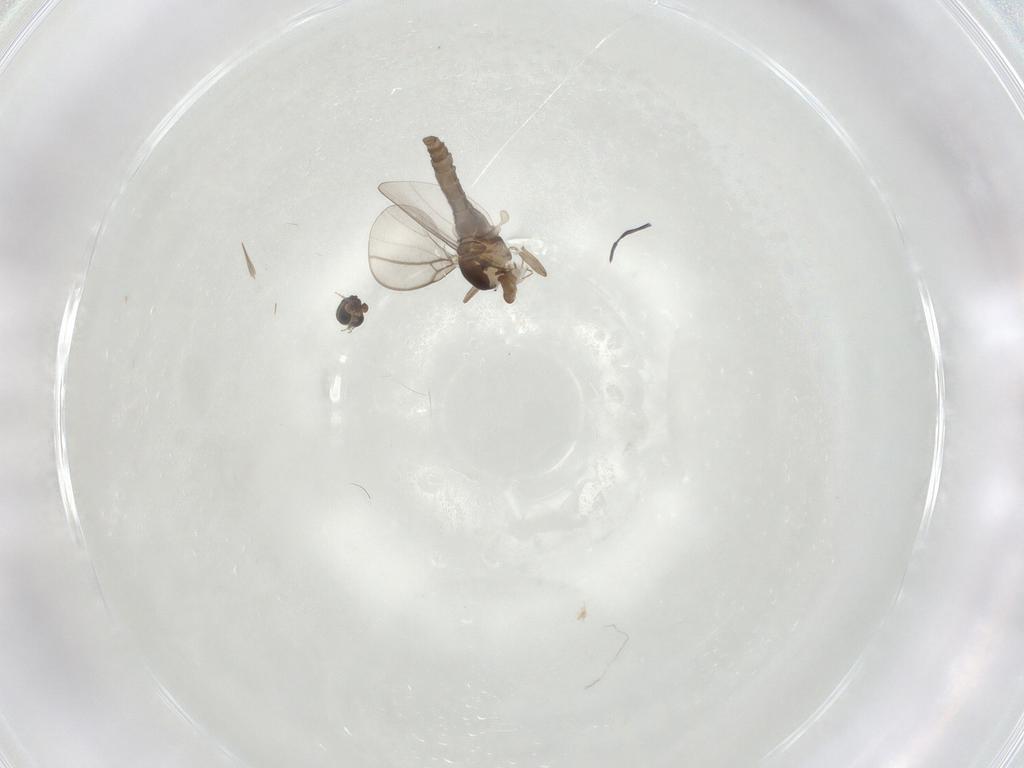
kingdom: Animalia
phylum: Arthropoda
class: Insecta
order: Diptera
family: Cecidomyiidae
